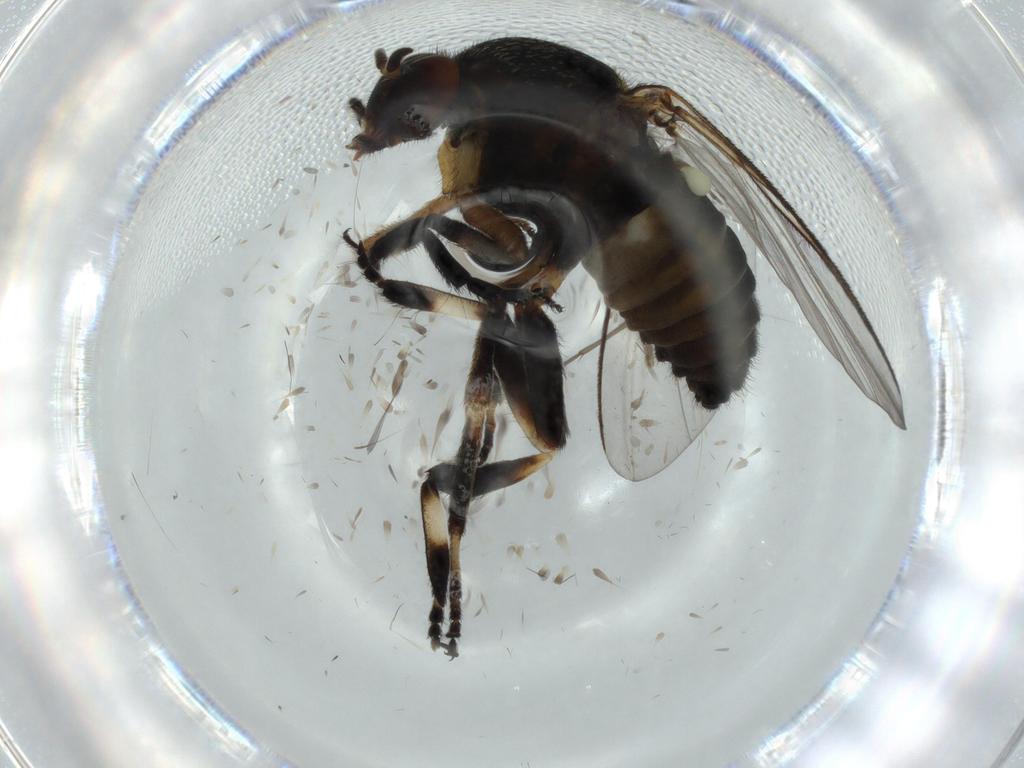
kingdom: Animalia
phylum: Arthropoda
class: Insecta
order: Diptera
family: Sphaeroceridae
